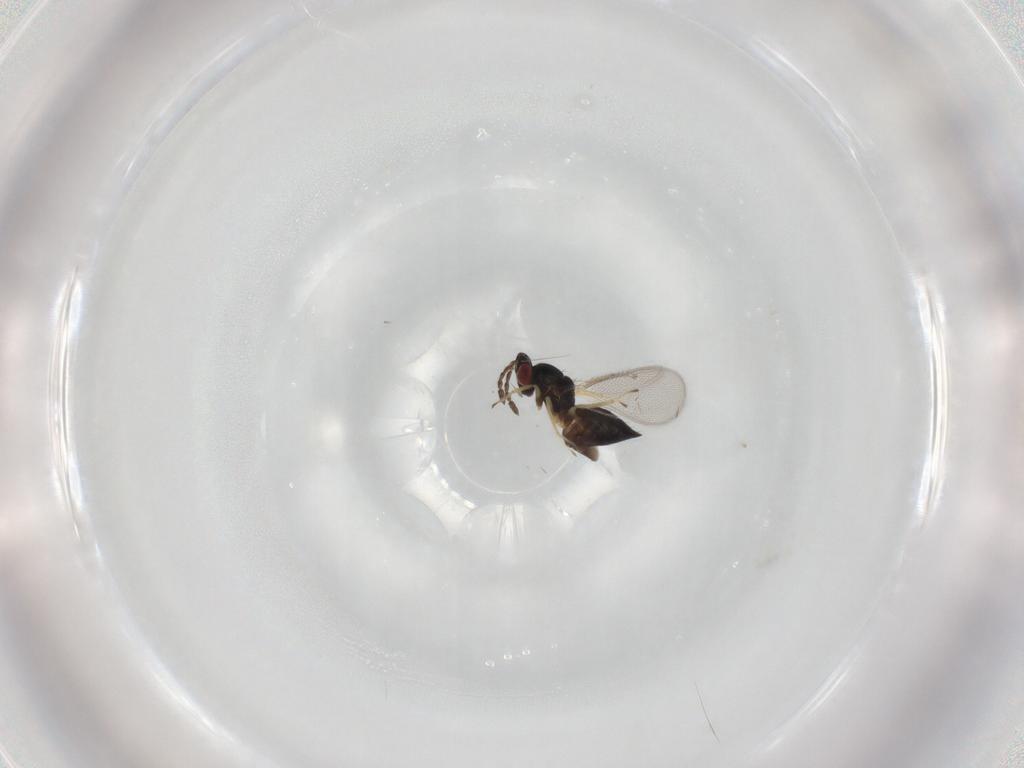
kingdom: Animalia
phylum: Arthropoda
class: Insecta
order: Hymenoptera
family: Eulophidae
